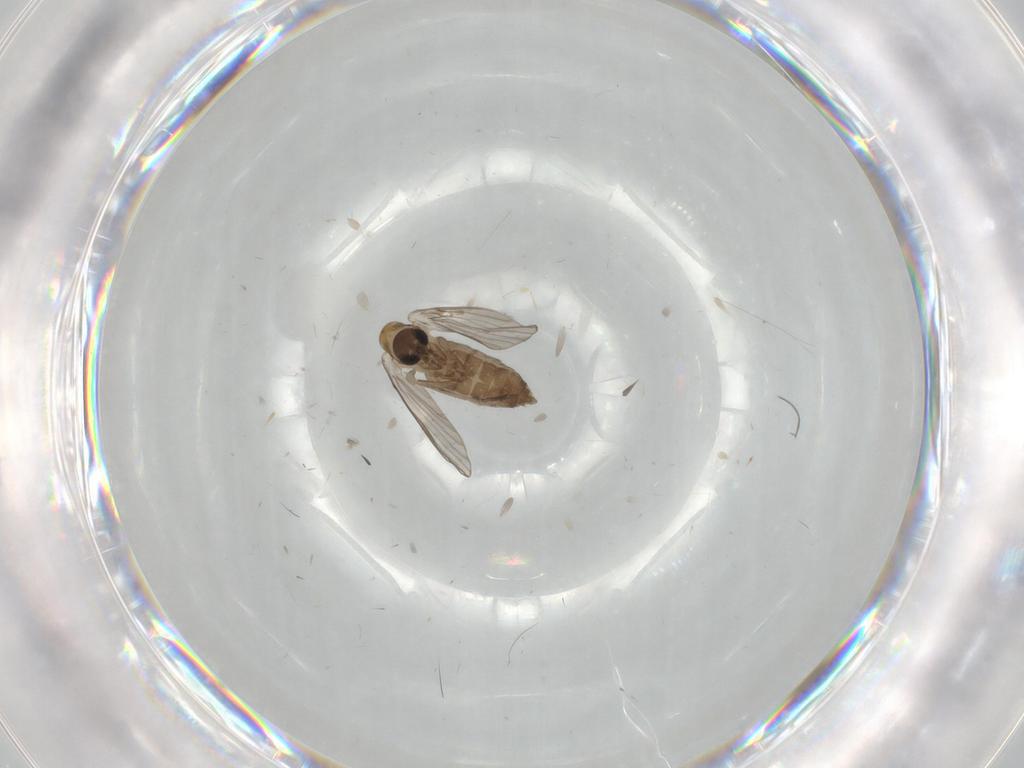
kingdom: Animalia
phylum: Arthropoda
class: Insecta
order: Diptera
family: Psychodidae
